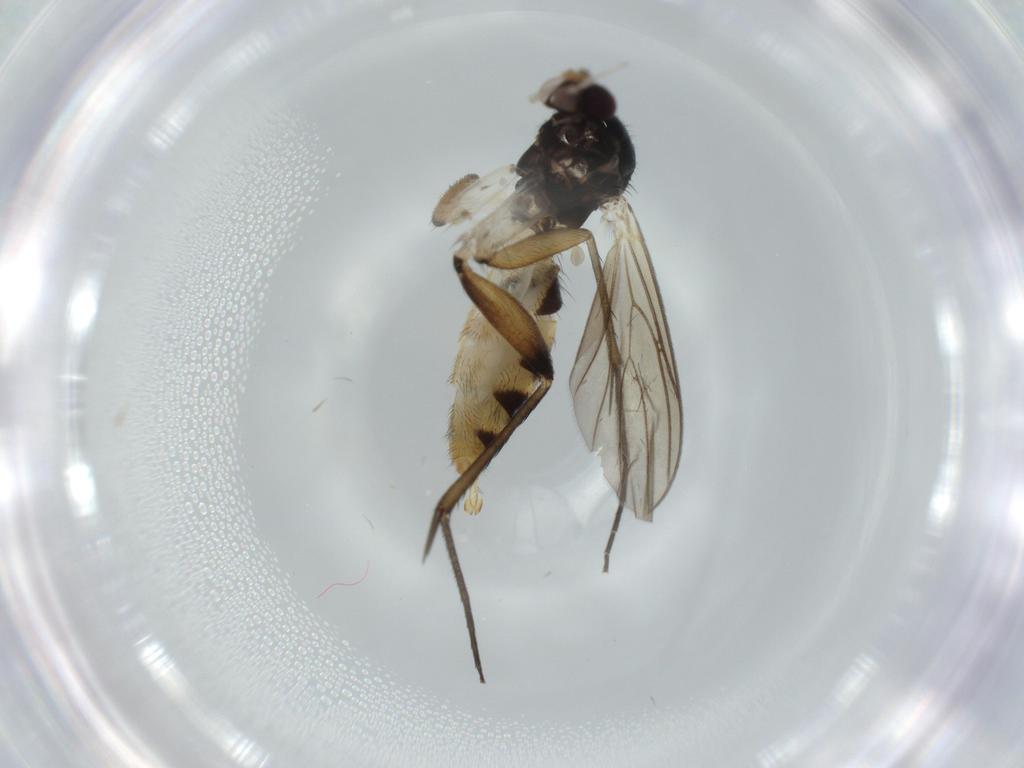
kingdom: Animalia
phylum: Arthropoda
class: Insecta
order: Diptera
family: Mycetophilidae
